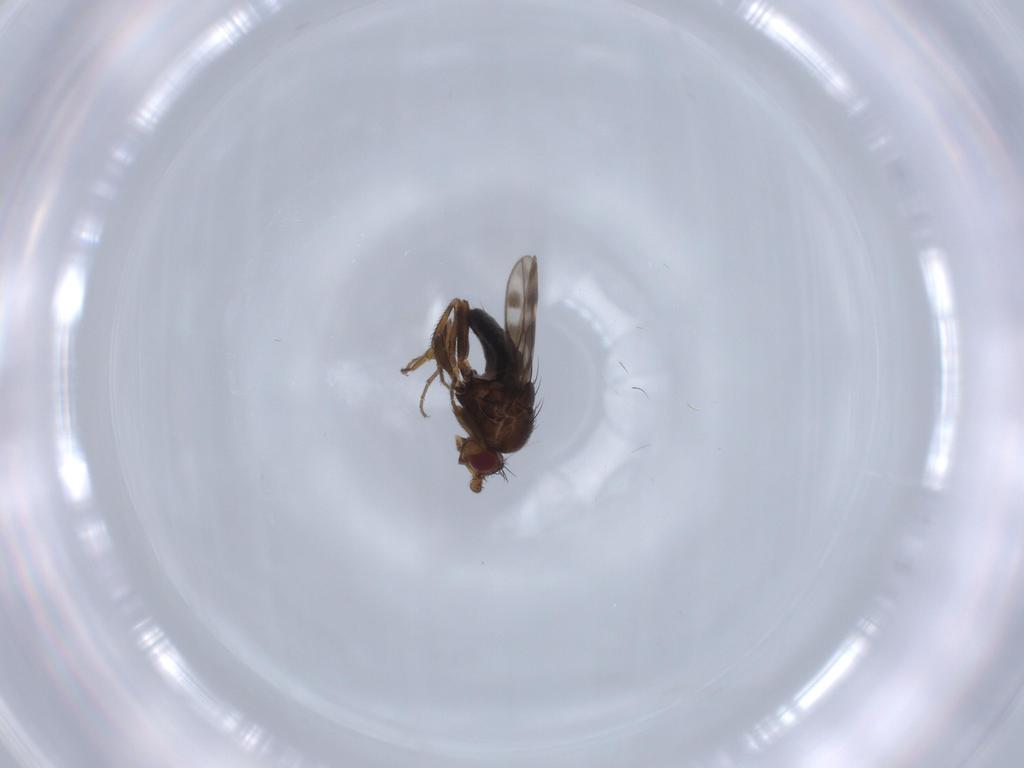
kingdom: Animalia
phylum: Arthropoda
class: Insecta
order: Diptera
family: Sphaeroceridae
